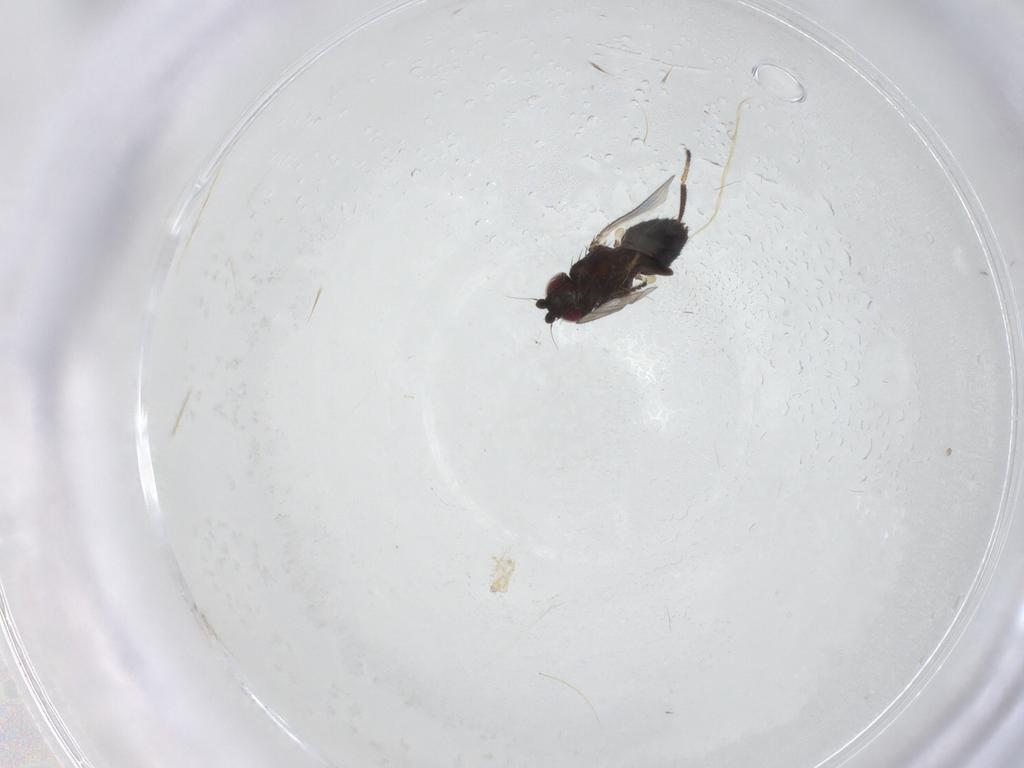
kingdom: Animalia
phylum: Arthropoda
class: Insecta
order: Diptera
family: Milichiidae
